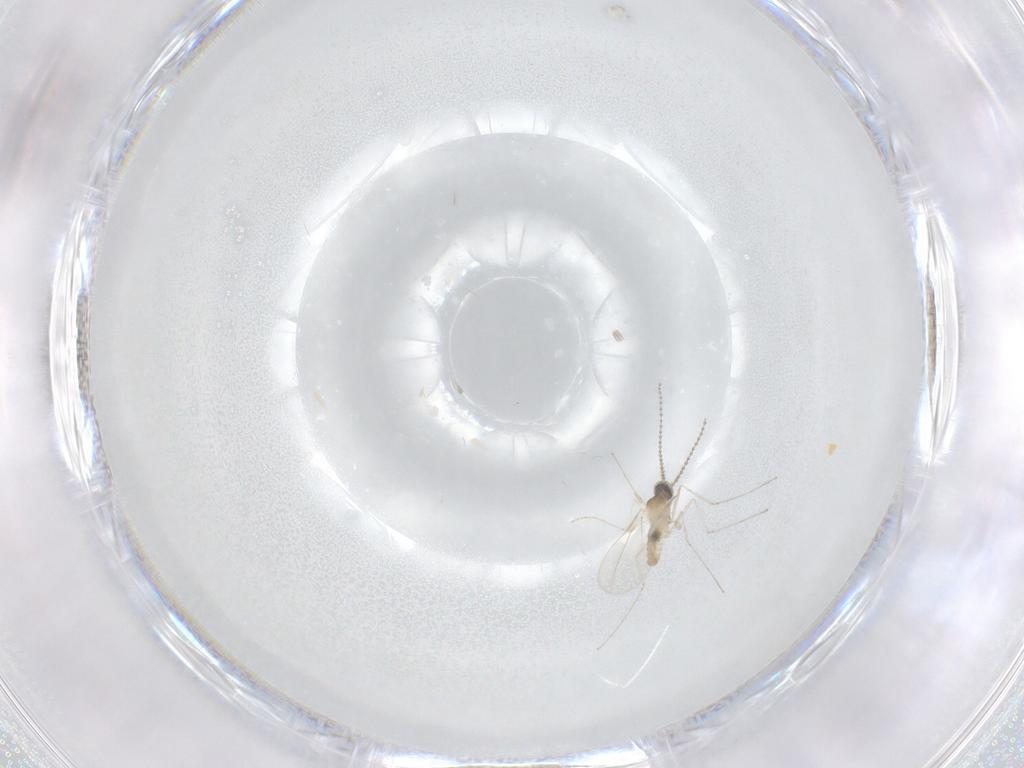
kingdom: Animalia
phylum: Arthropoda
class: Insecta
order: Diptera
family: Cecidomyiidae
